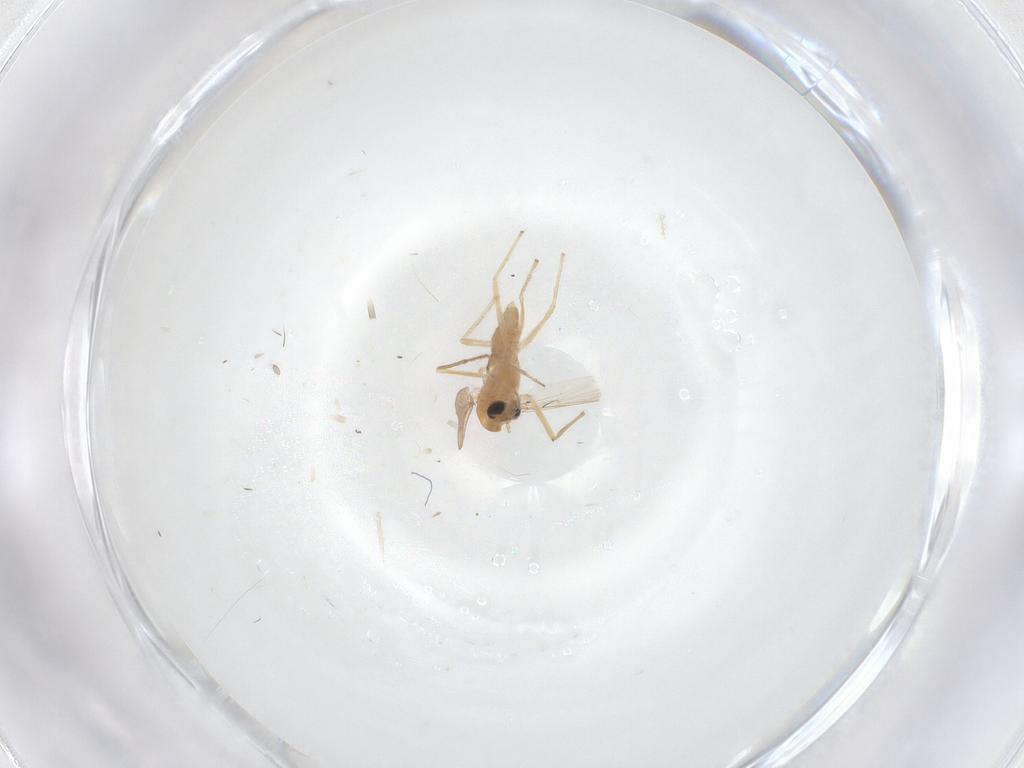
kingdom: Animalia
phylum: Arthropoda
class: Insecta
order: Diptera
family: Chironomidae
